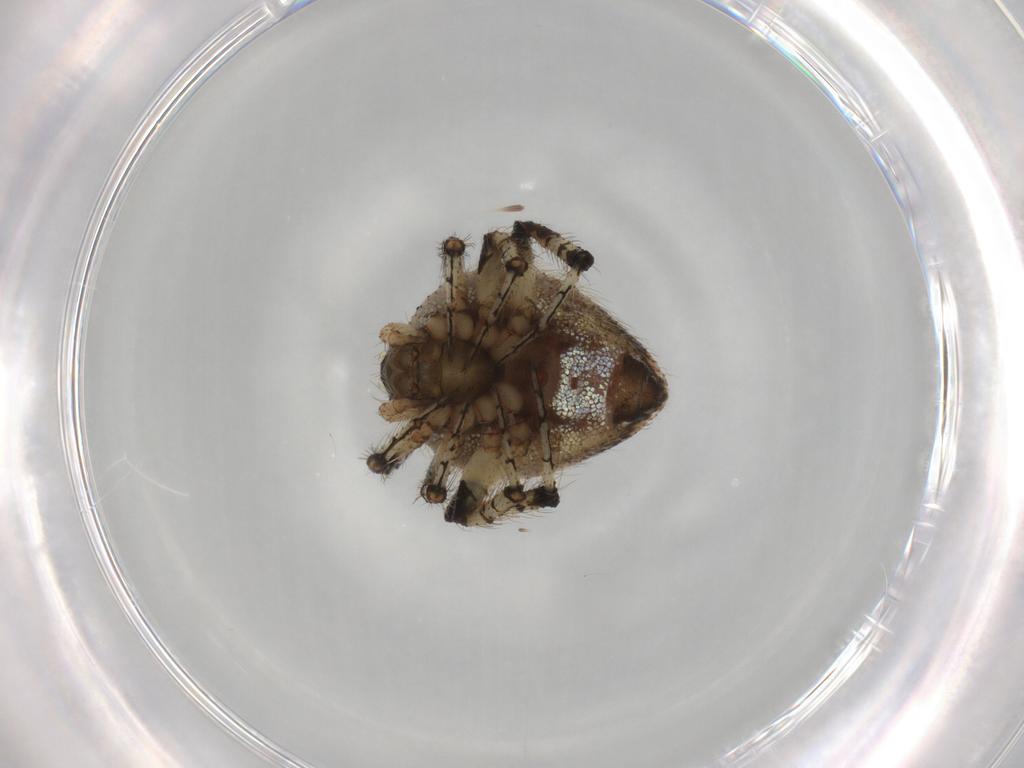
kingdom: Animalia
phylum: Arthropoda
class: Arachnida
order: Araneae
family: Theridiidae
